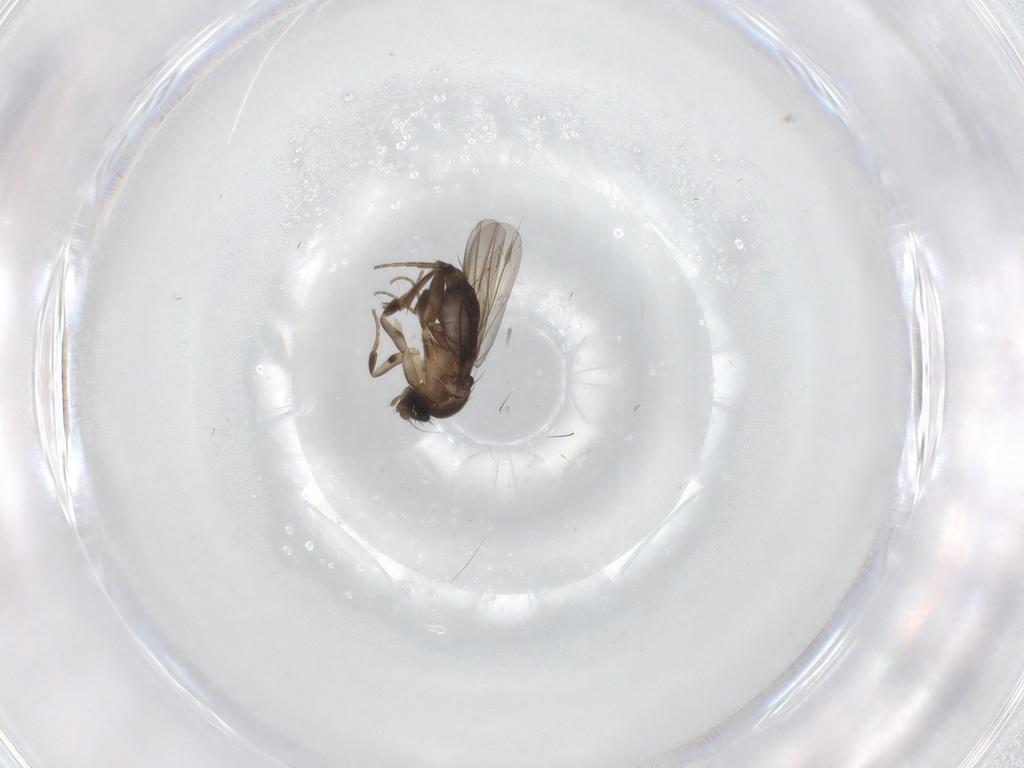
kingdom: Animalia
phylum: Arthropoda
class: Insecta
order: Diptera
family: Phoridae
